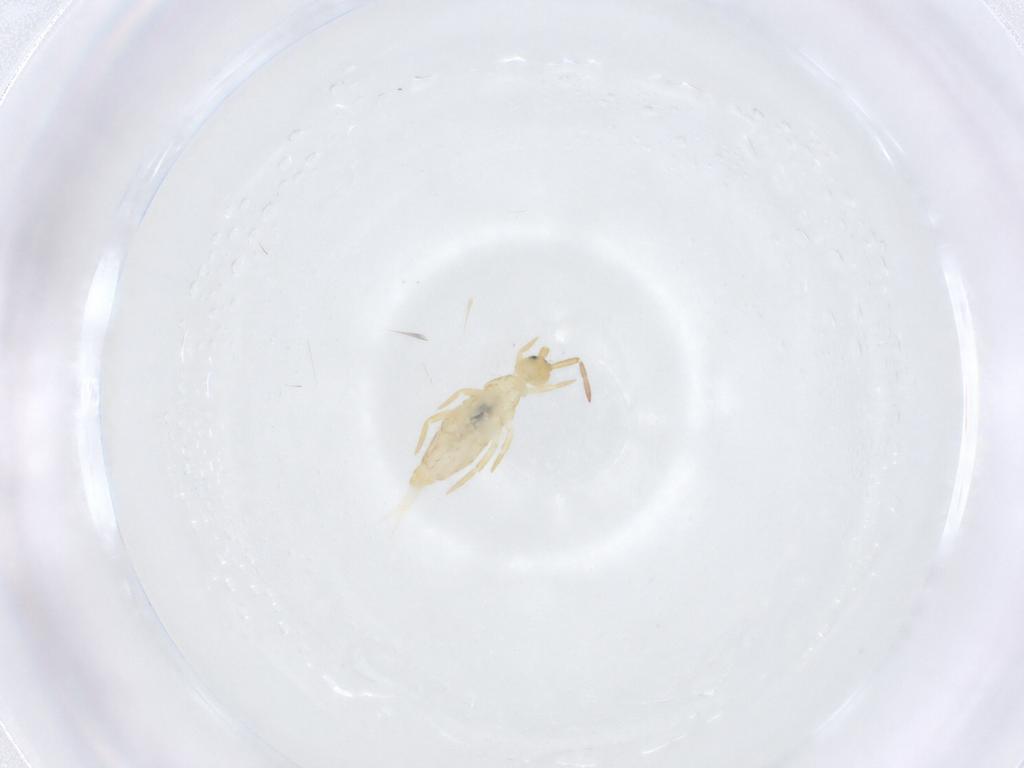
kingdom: Animalia
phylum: Arthropoda
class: Collembola
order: Entomobryomorpha
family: Entomobryidae
